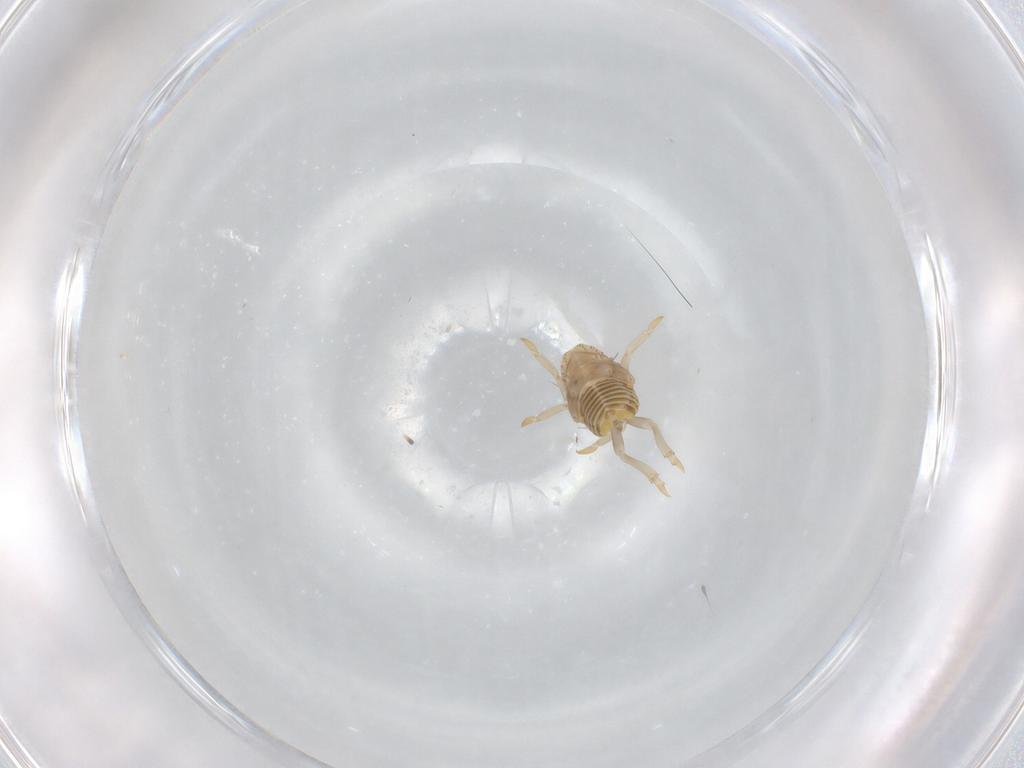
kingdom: Animalia
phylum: Arthropoda
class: Insecta
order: Hemiptera
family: Flatidae
